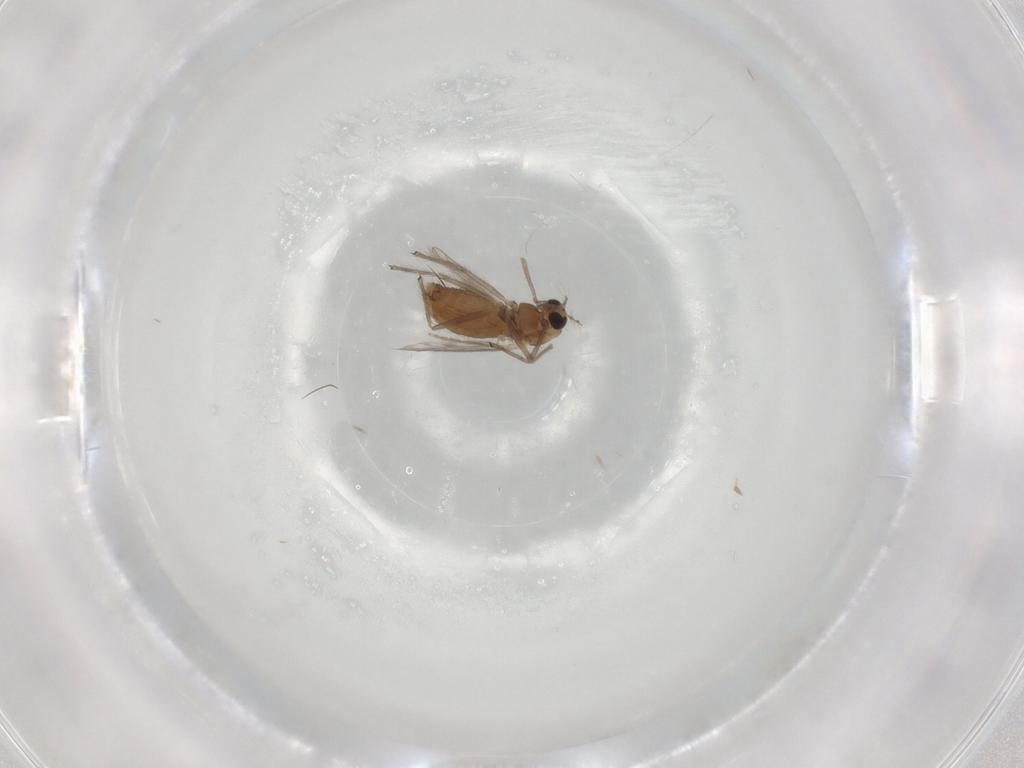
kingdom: Animalia
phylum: Arthropoda
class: Insecta
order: Diptera
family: Chironomidae
